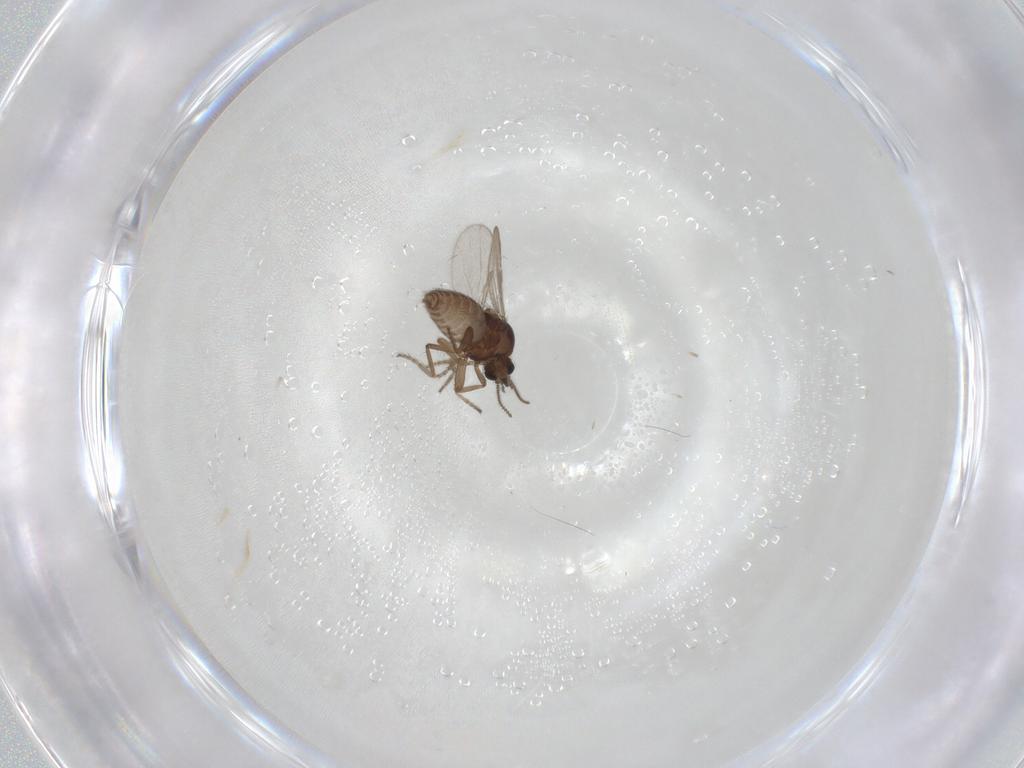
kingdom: Animalia
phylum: Arthropoda
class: Insecta
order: Diptera
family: Ceratopogonidae
